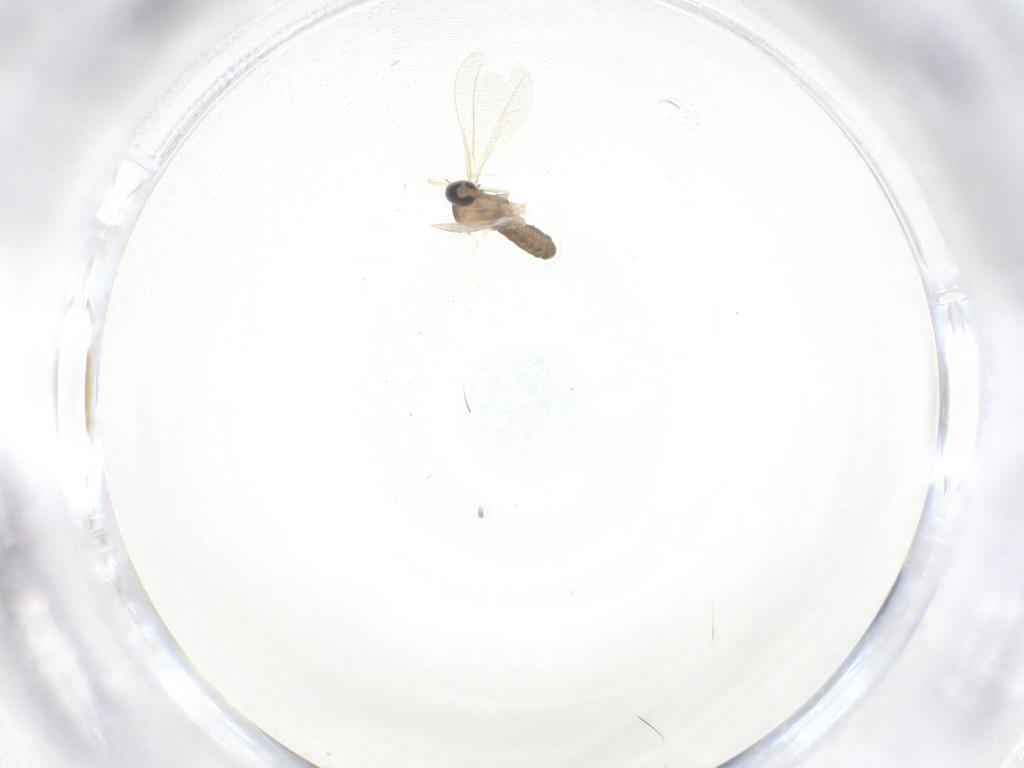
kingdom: Animalia
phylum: Arthropoda
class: Insecta
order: Diptera
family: Cecidomyiidae
